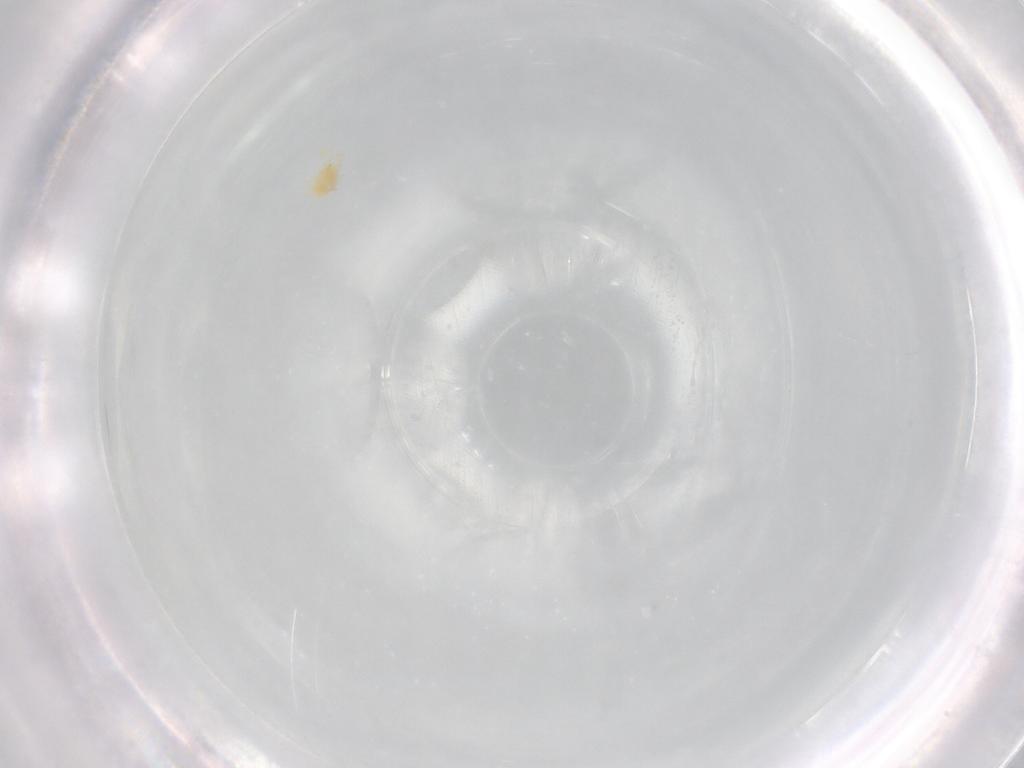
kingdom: Animalia
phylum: Arthropoda
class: Arachnida
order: Trombidiformes
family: Tetranychidae
